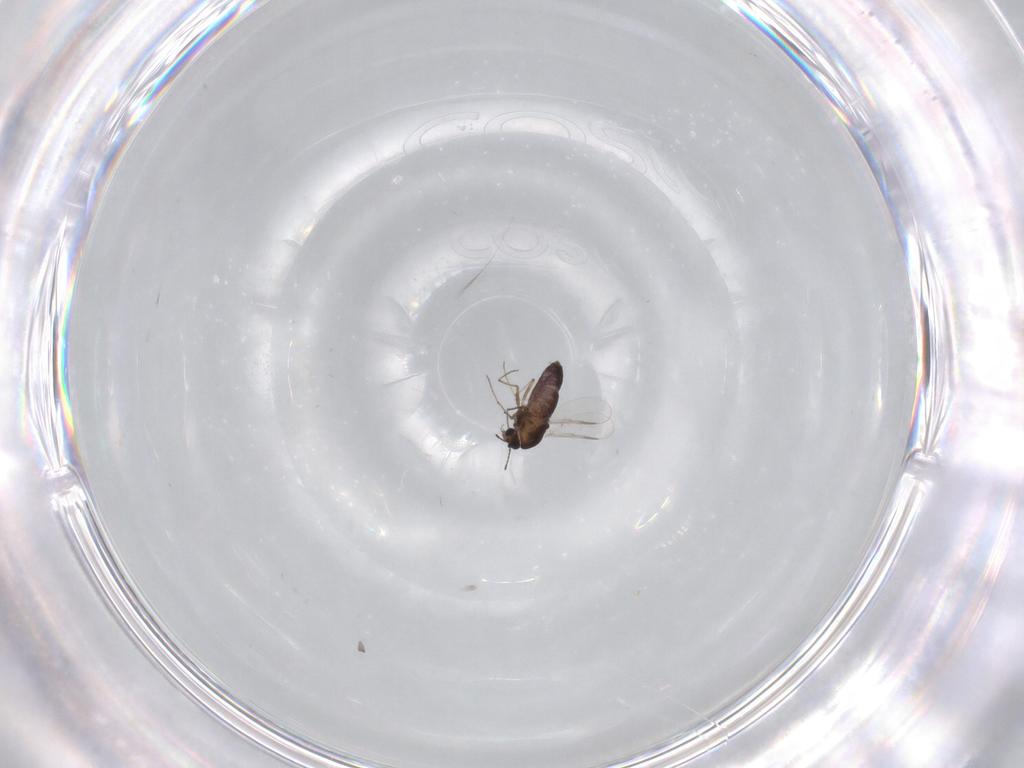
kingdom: Animalia
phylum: Arthropoda
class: Insecta
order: Diptera
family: Chironomidae
